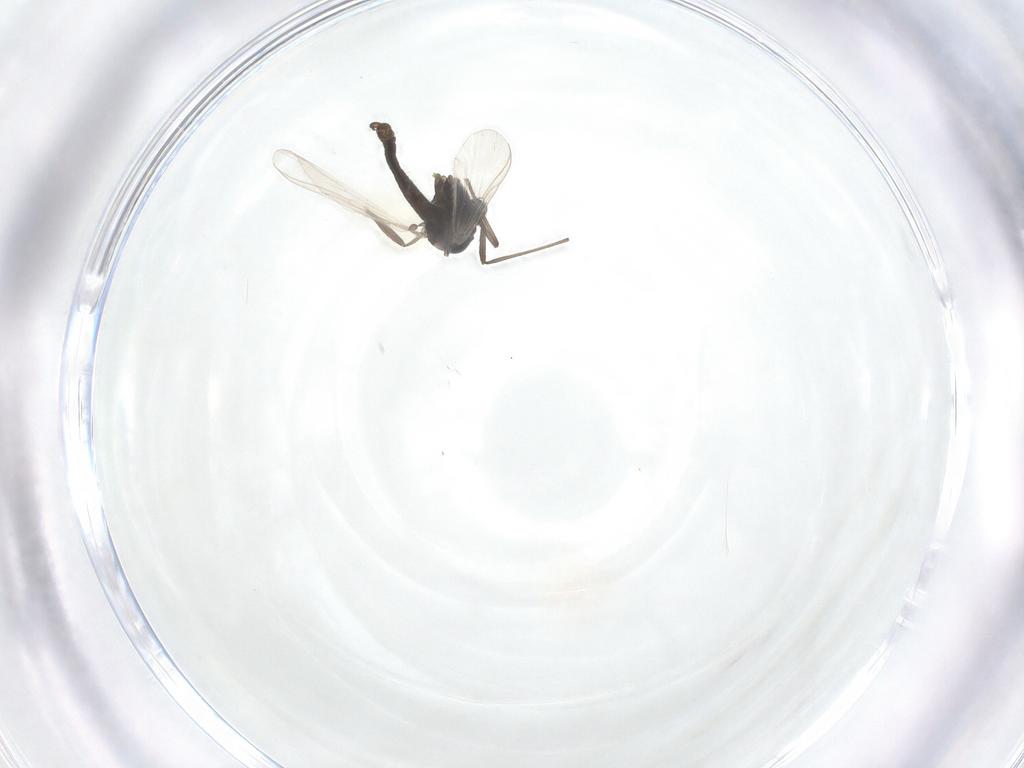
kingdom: Animalia
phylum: Arthropoda
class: Insecta
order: Diptera
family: Chironomidae
